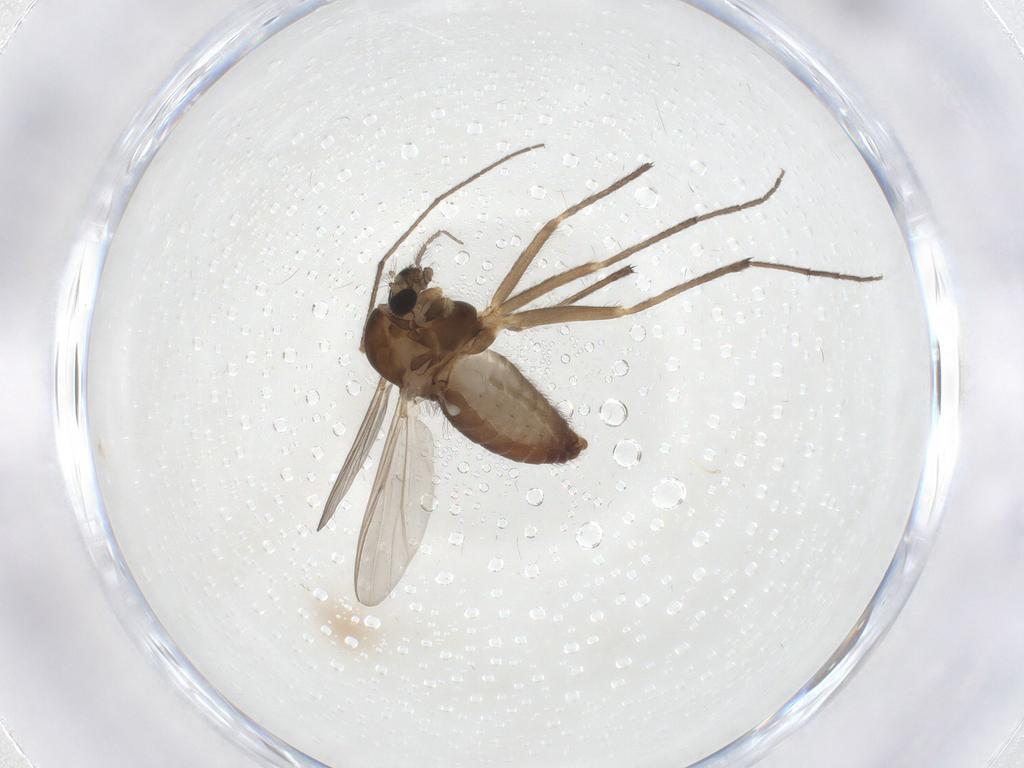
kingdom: Animalia
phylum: Arthropoda
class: Insecta
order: Diptera
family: Chironomidae
